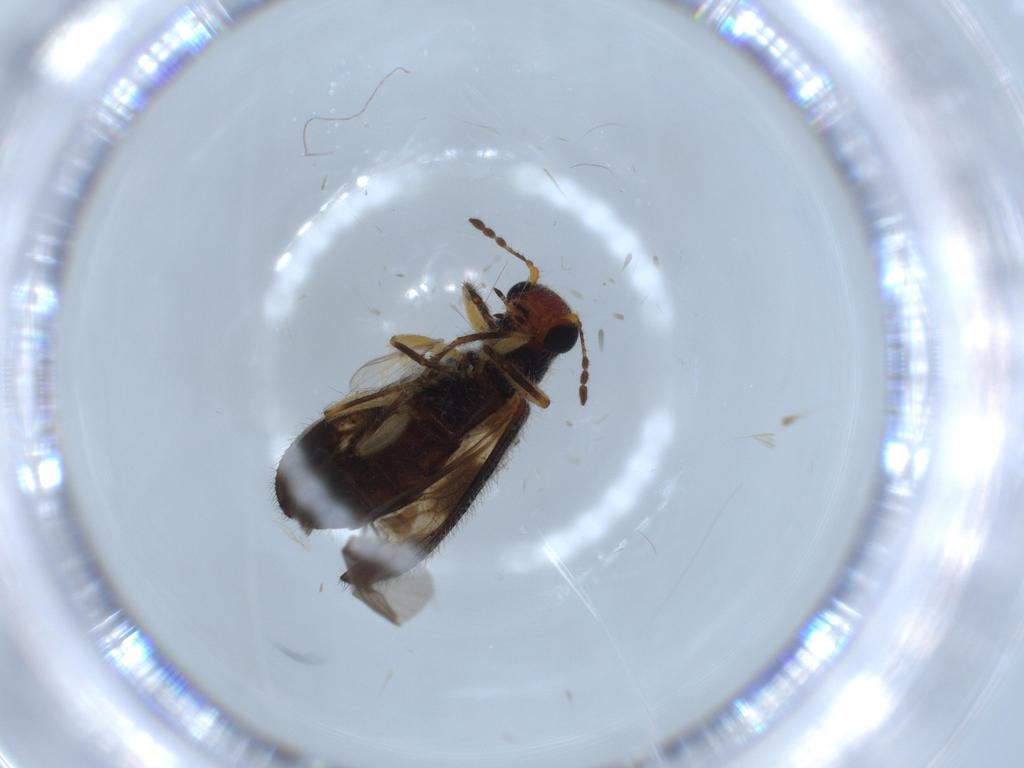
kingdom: Animalia
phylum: Arthropoda
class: Insecta
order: Coleoptera
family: Cleridae
